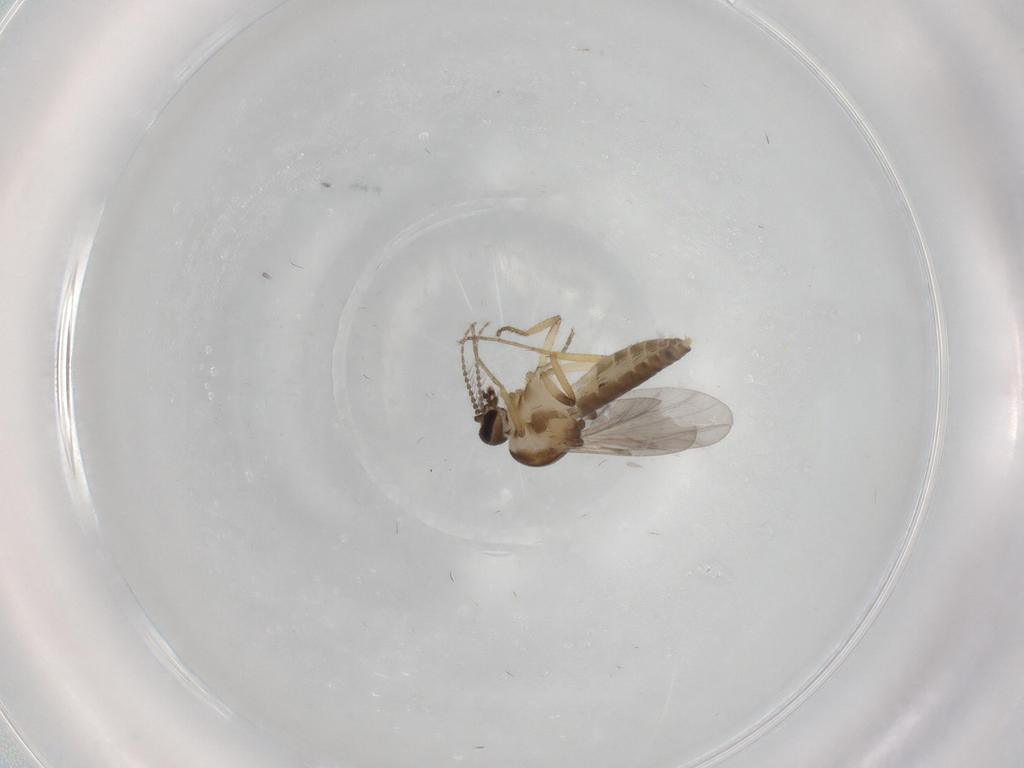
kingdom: Animalia
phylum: Arthropoda
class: Insecta
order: Diptera
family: Ceratopogonidae
